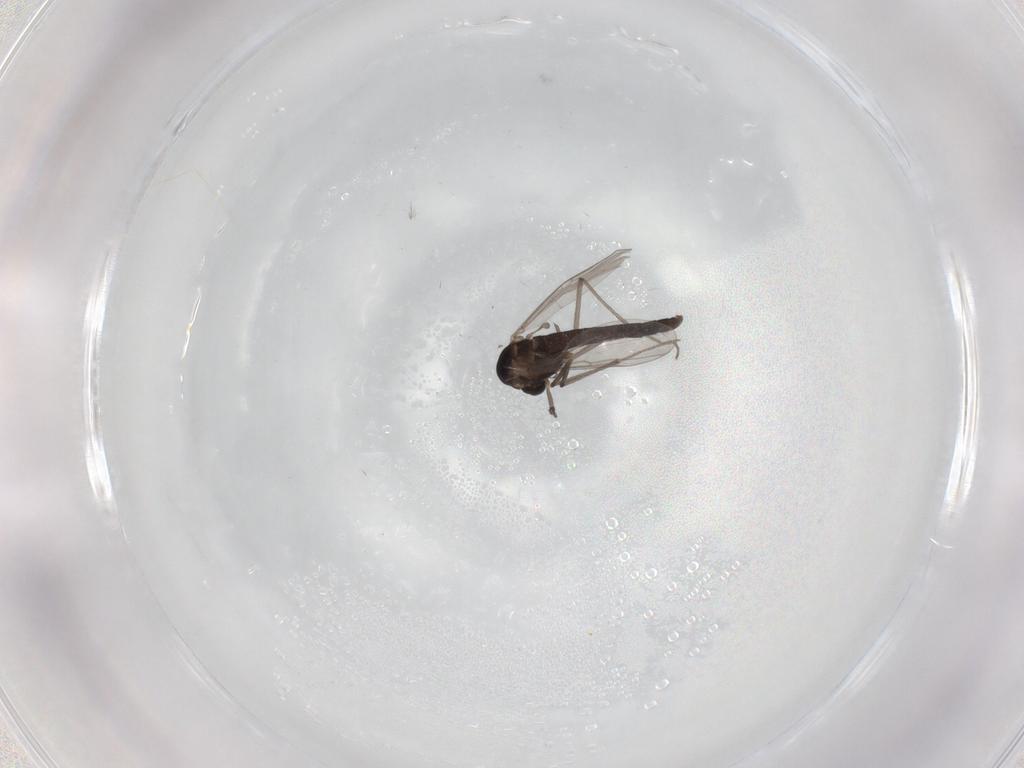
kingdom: Animalia
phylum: Arthropoda
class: Insecta
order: Diptera
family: Chironomidae
